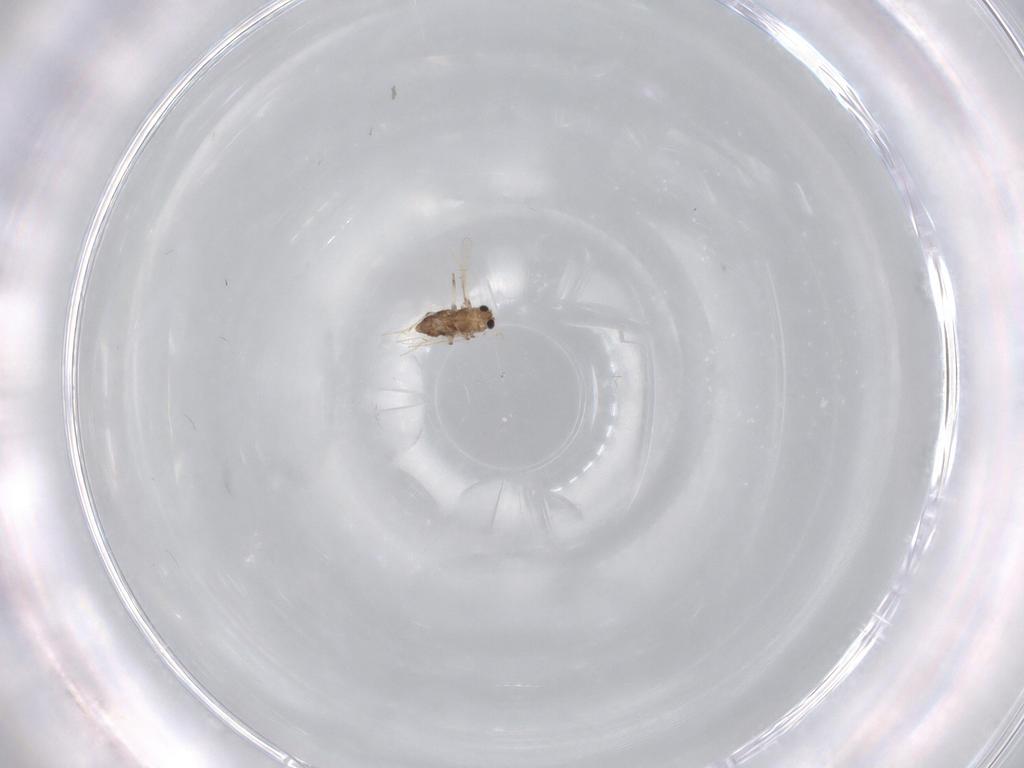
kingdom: Animalia
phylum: Arthropoda
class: Insecta
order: Diptera
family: Chironomidae
